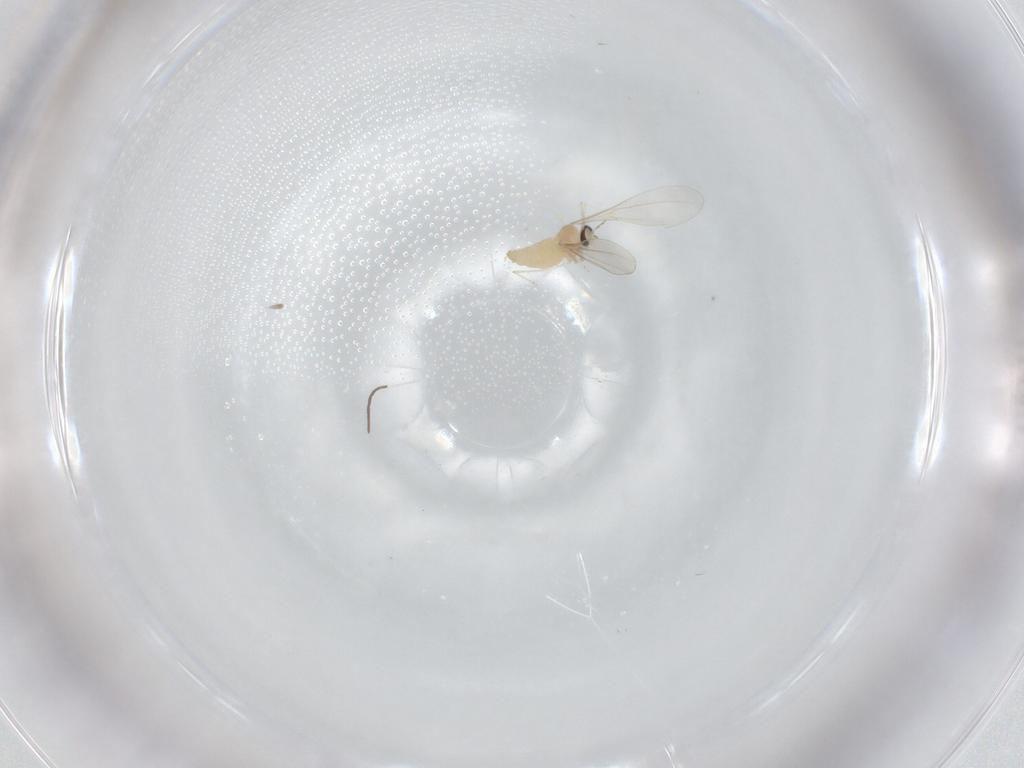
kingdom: Animalia
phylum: Arthropoda
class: Insecta
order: Diptera
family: Cecidomyiidae
